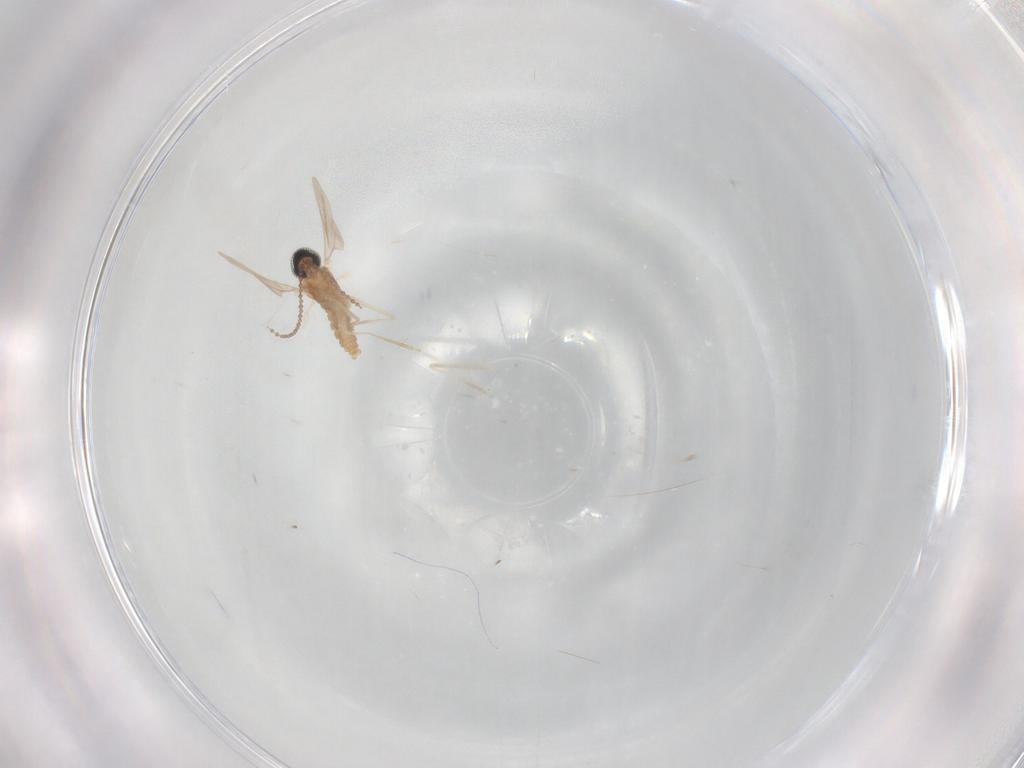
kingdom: Animalia
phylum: Arthropoda
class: Insecta
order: Diptera
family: Cecidomyiidae
